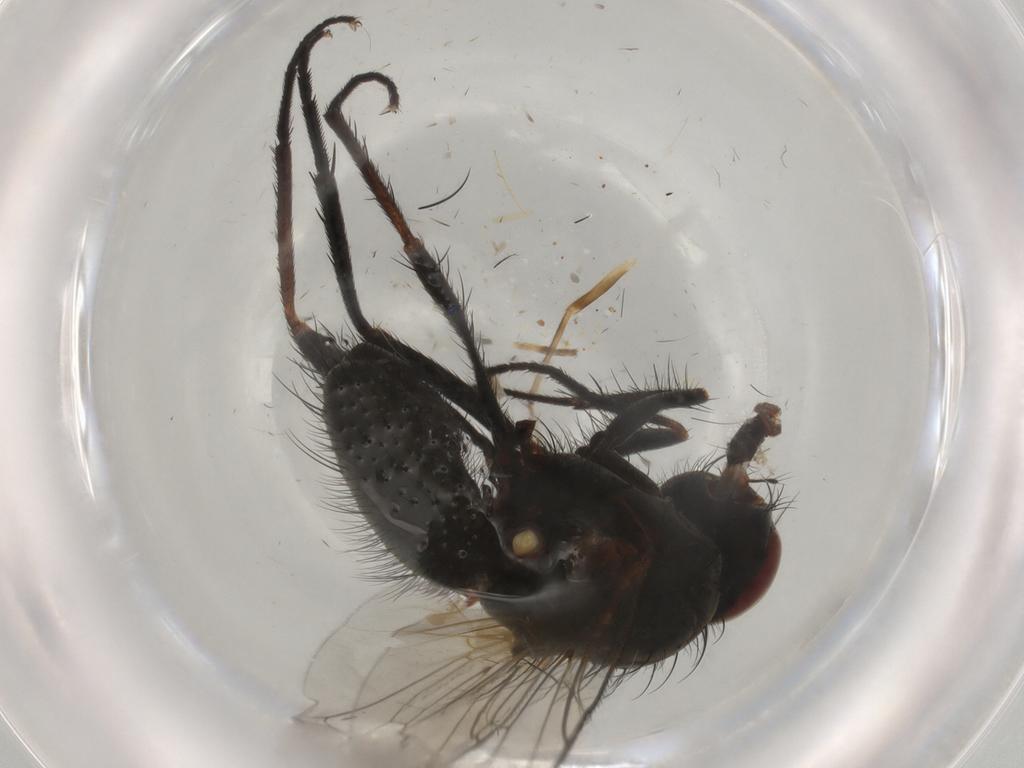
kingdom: Animalia
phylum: Arthropoda
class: Insecta
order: Diptera
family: Anthomyiidae
